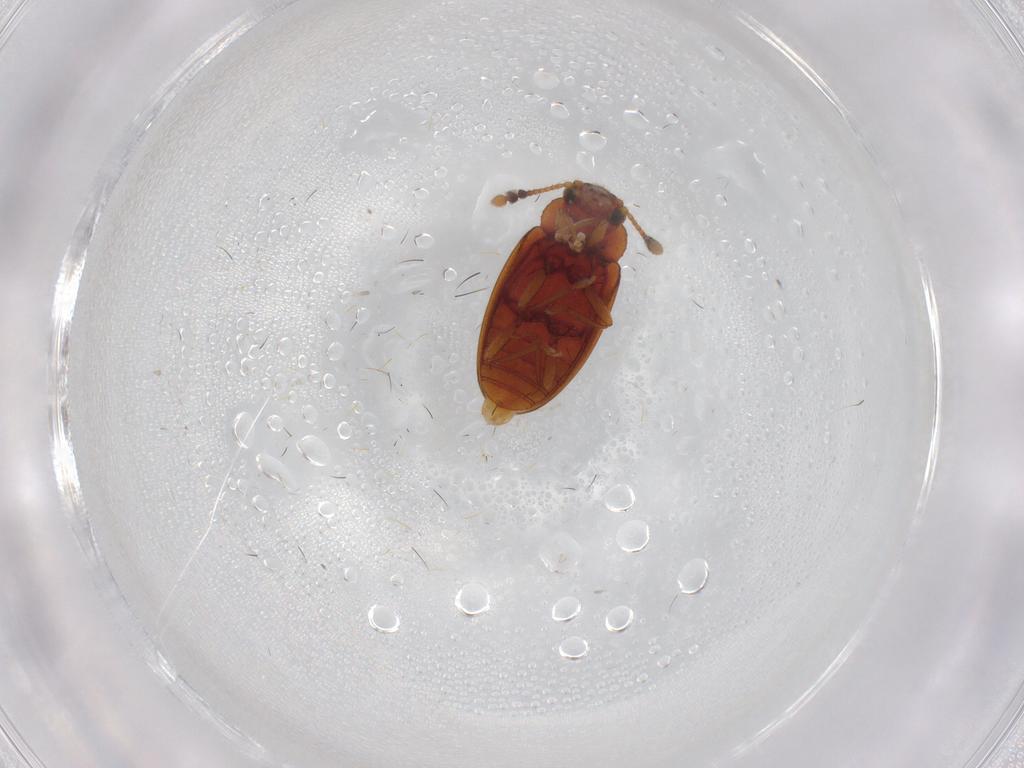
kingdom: Animalia
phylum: Arthropoda
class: Insecta
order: Coleoptera
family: Erotylidae
